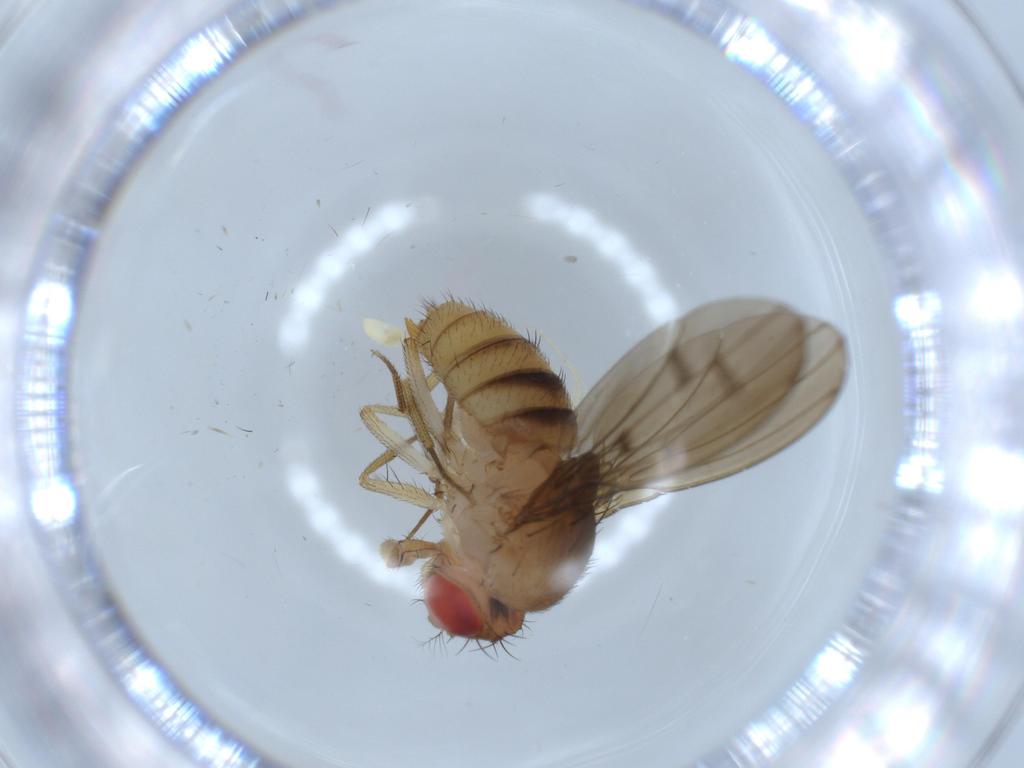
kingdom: Animalia
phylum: Arthropoda
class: Insecta
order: Diptera
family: Drosophilidae
